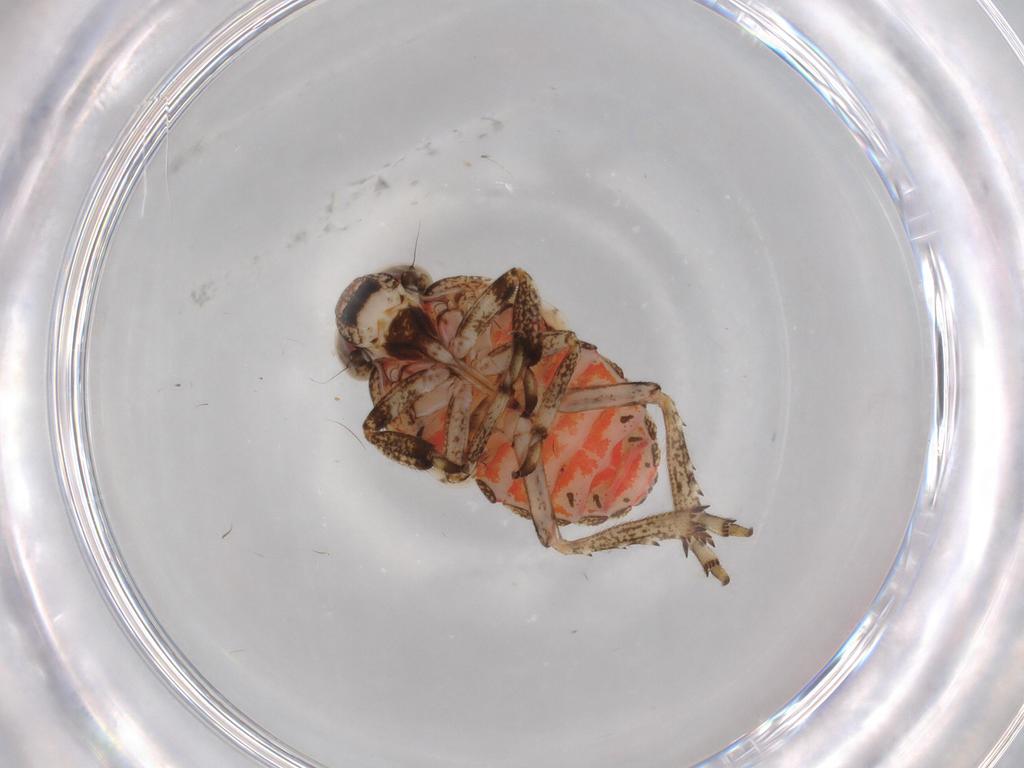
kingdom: Animalia
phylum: Arthropoda
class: Insecta
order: Hemiptera
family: Issidae
